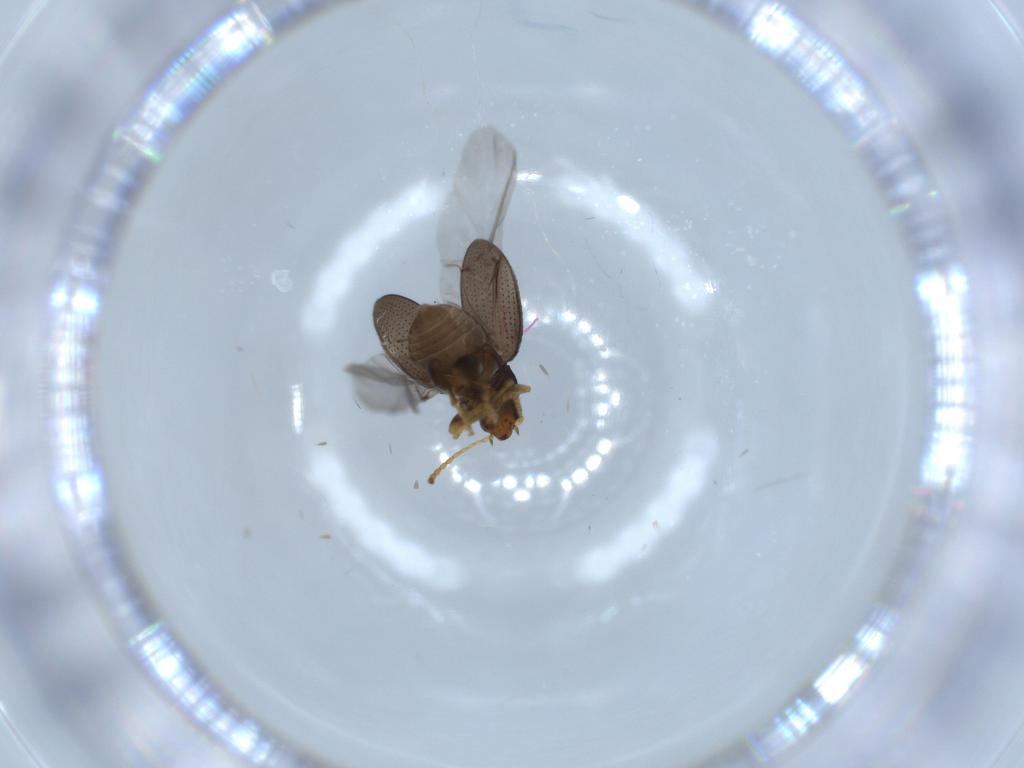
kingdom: Animalia
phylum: Arthropoda
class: Insecta
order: Coleoptera
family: Chrysomelidae
